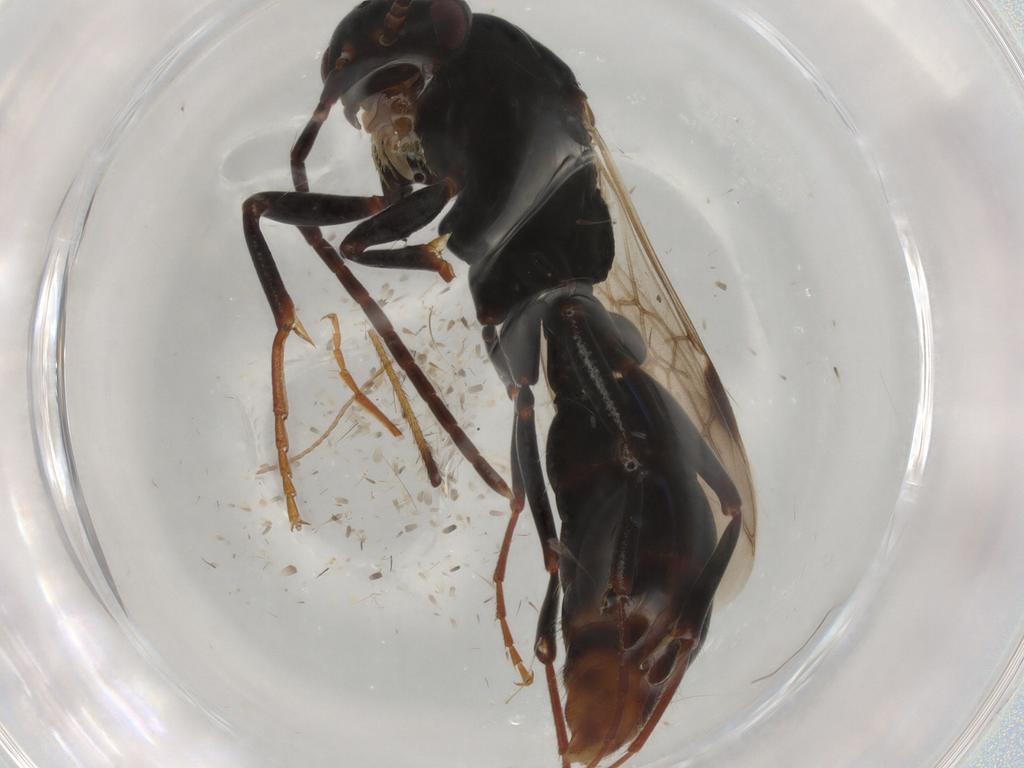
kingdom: Animalia
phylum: Arthropoda
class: Insecta
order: Hymenoptera
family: Formicidae
